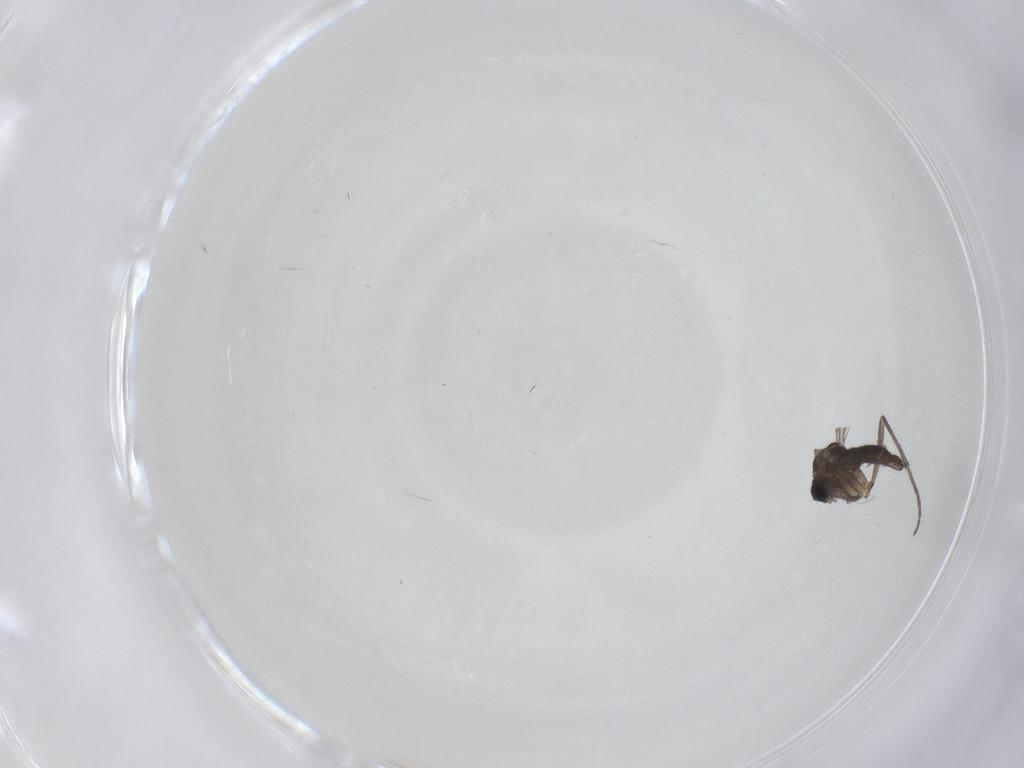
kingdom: Animalia
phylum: Arthropoda
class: Insecta
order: Diptera
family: Sciaridae
